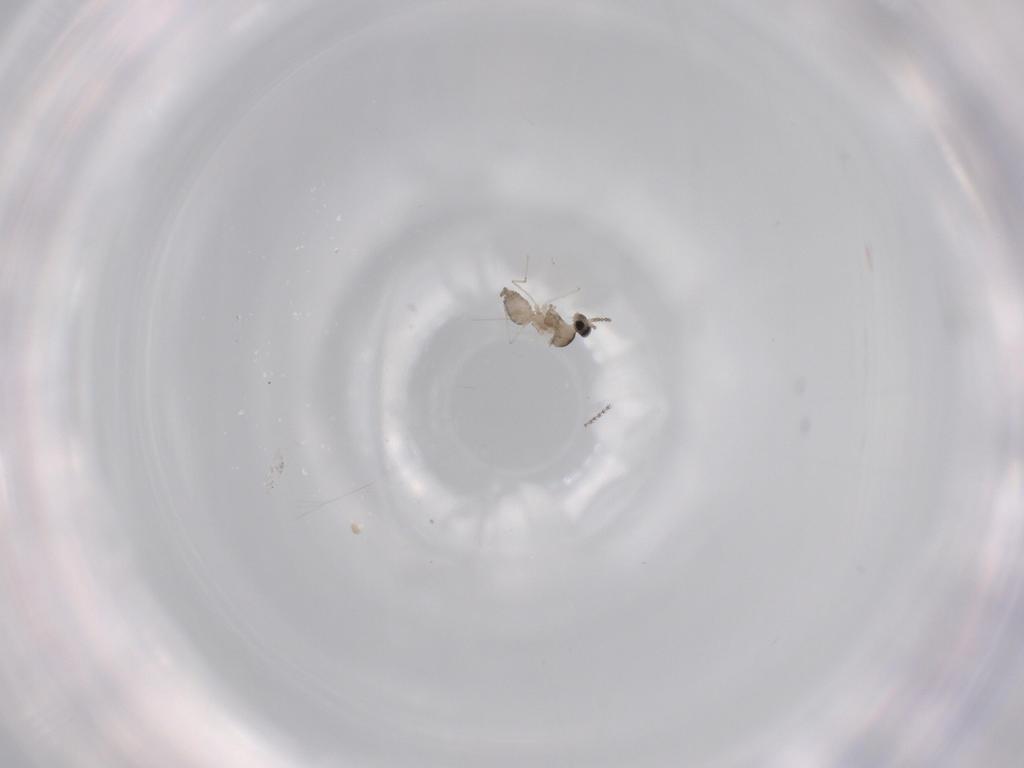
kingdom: Animalia
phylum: Arthropoda
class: Insecta
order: Diptera
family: Cecidomyiidae
